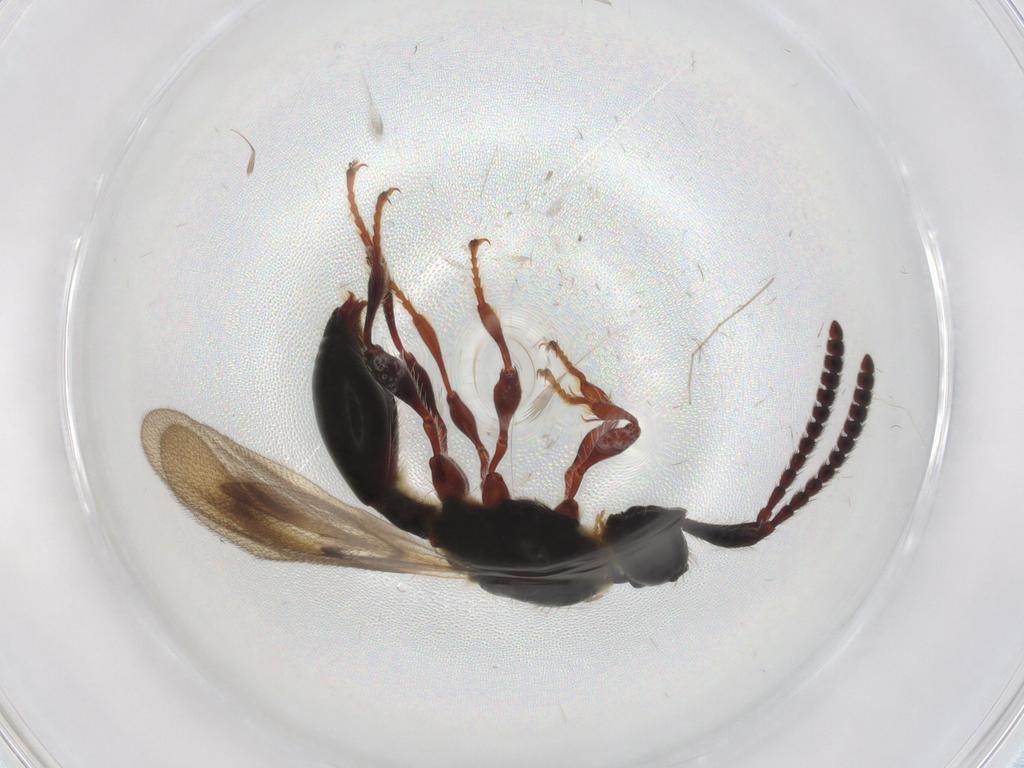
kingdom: Animalia
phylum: Arthropoda
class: Insecta
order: Hymenoptera
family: Diapriidae
